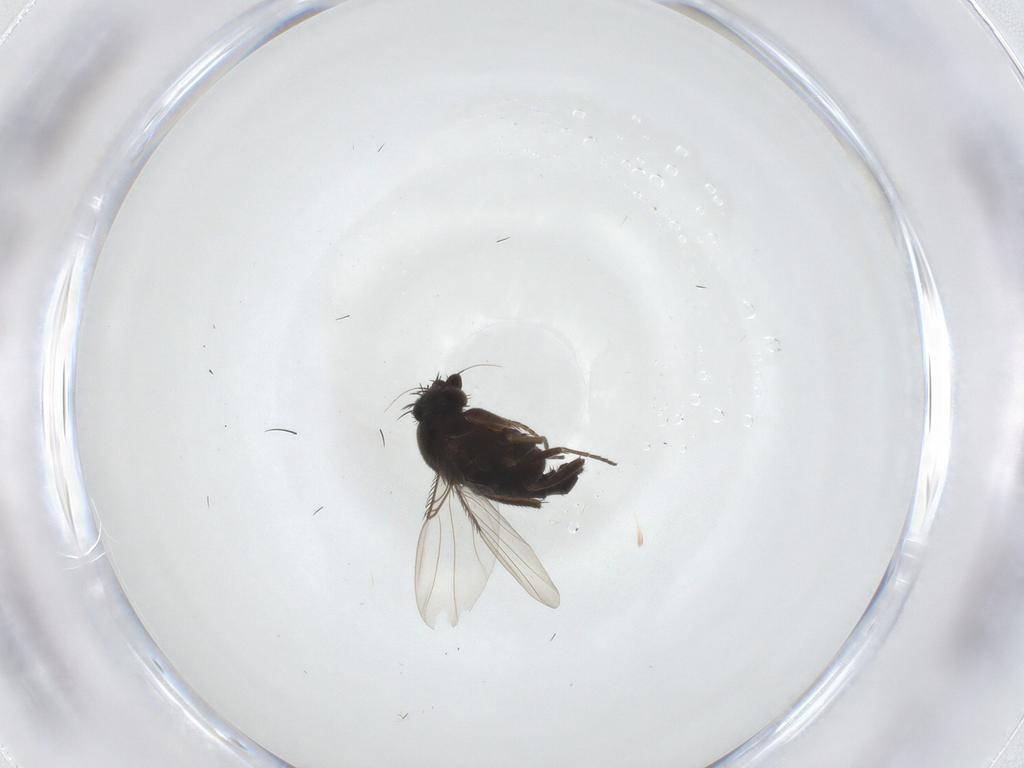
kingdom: Animalia
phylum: Arthropoda
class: Insecta
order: Diptera
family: Phoridae
